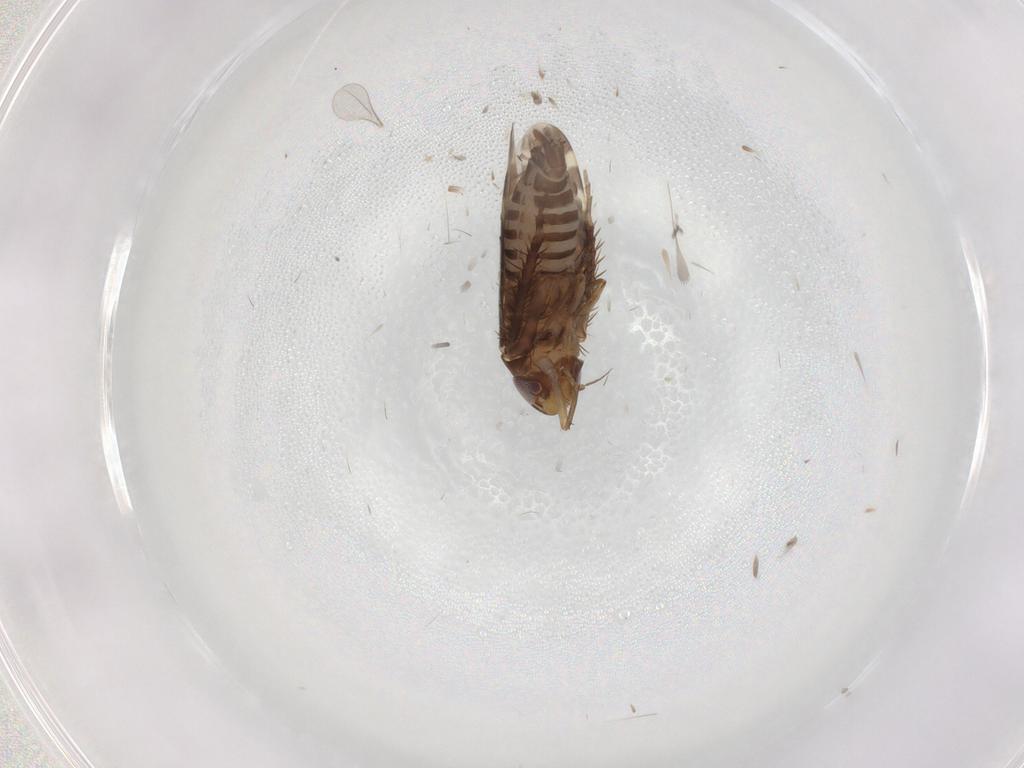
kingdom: Animalia
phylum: Arthropoda
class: Insecta
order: Hemiptera
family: Cicadellidae
